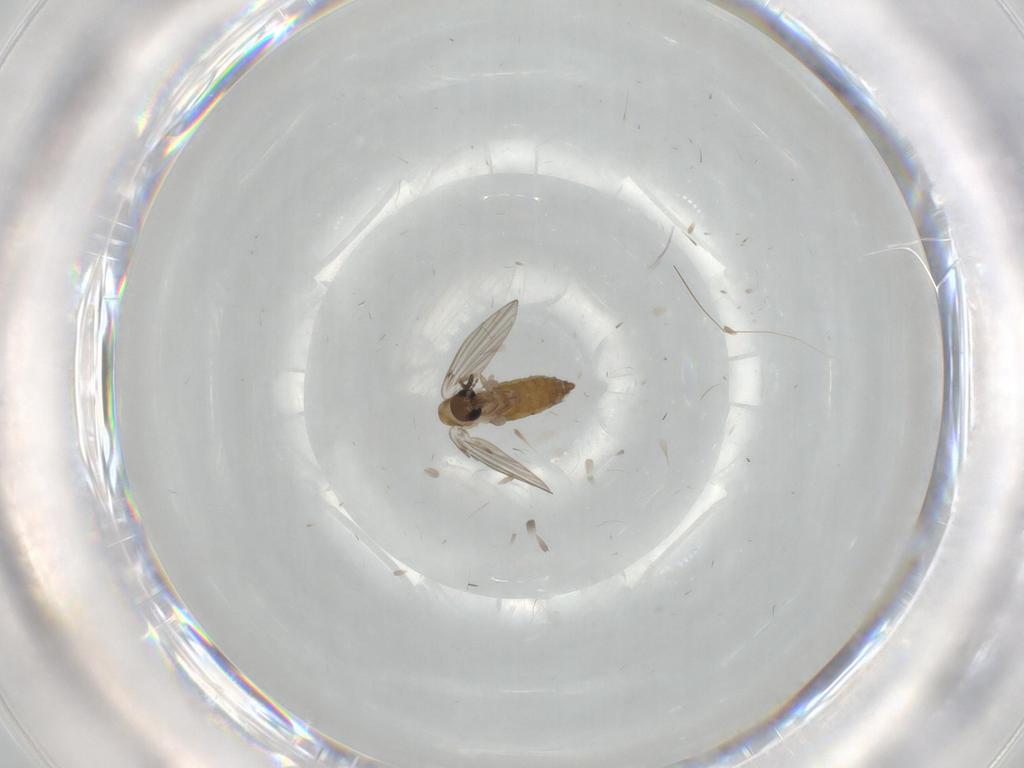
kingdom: Animalia
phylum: Arthropoda
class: Insecta
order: Diptera
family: Psychodidae
